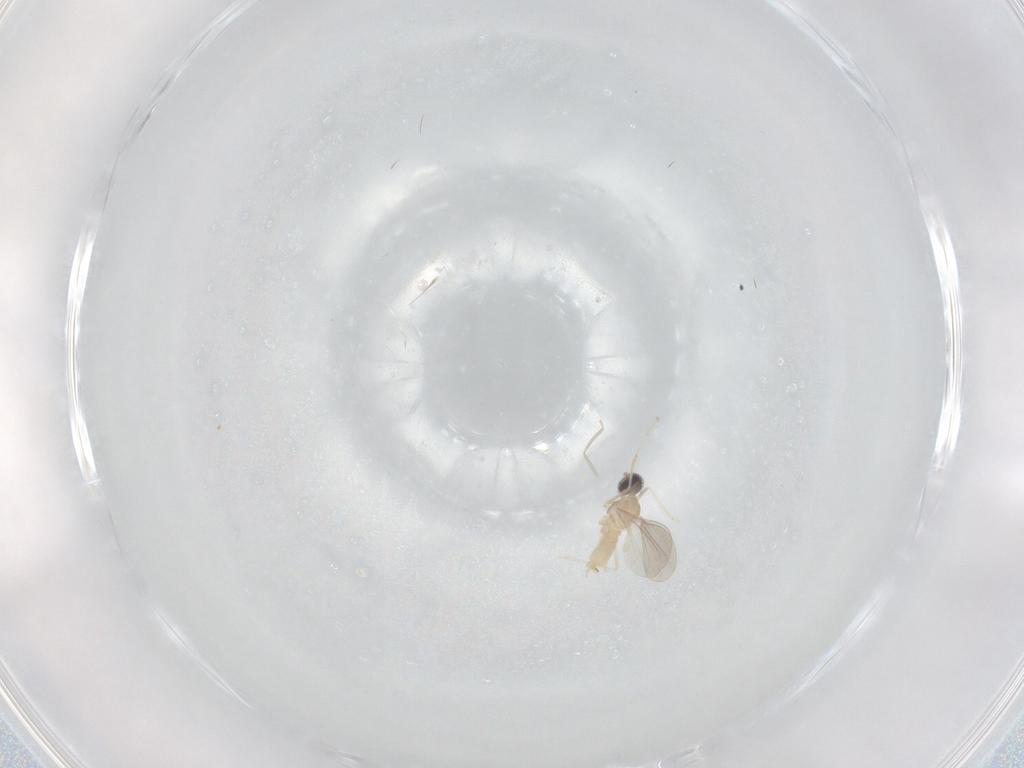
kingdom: Animalia
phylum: Arthropoda
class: Insecta
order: Diptera
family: Cecidomyiidae
